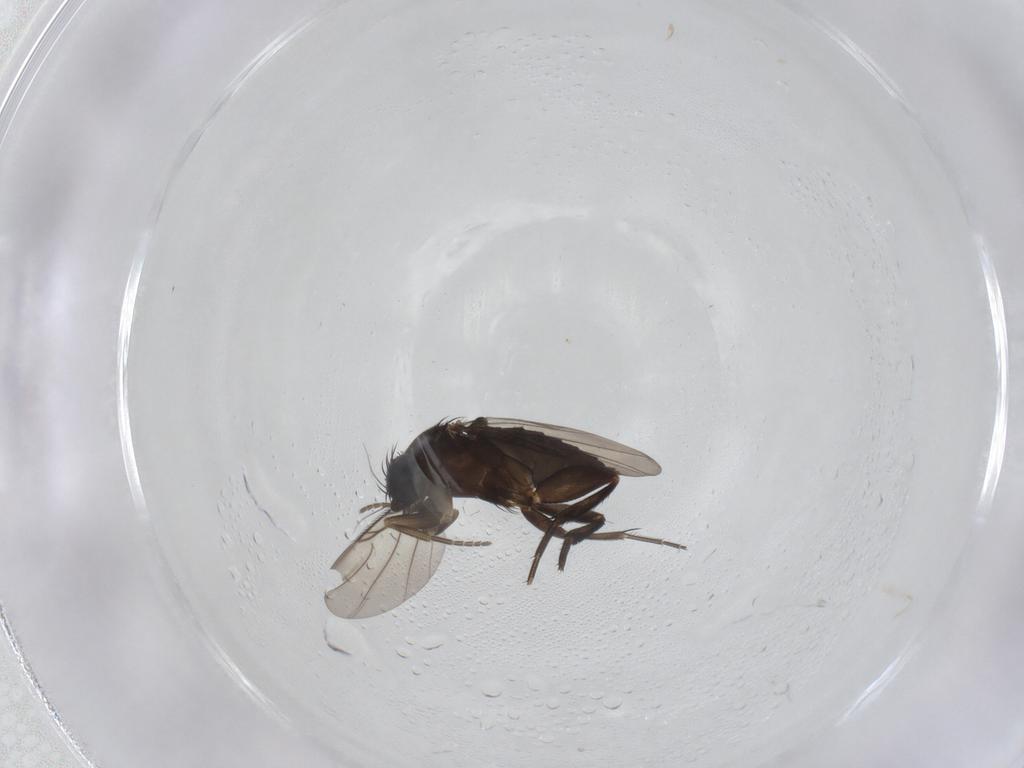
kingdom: Animalia
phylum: Arthropoda
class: Insecta
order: Diptera
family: Phoridae
